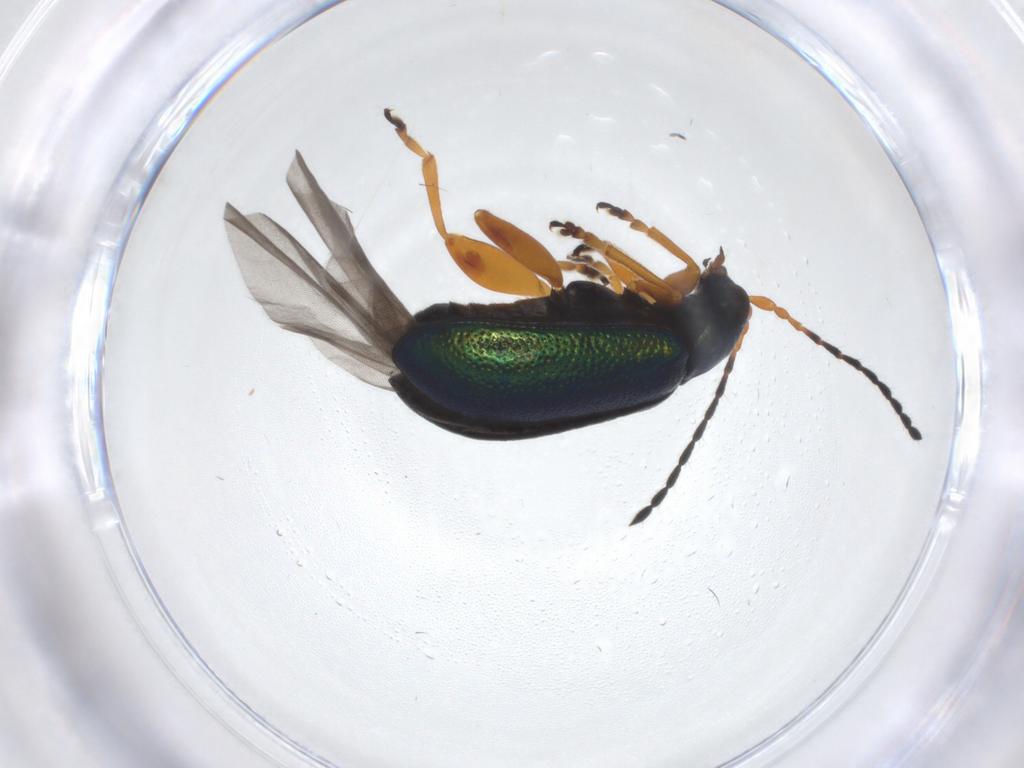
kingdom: Animalia
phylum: Arthropoda
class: Insecta
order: Coleoptera
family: Chrysomelidae
